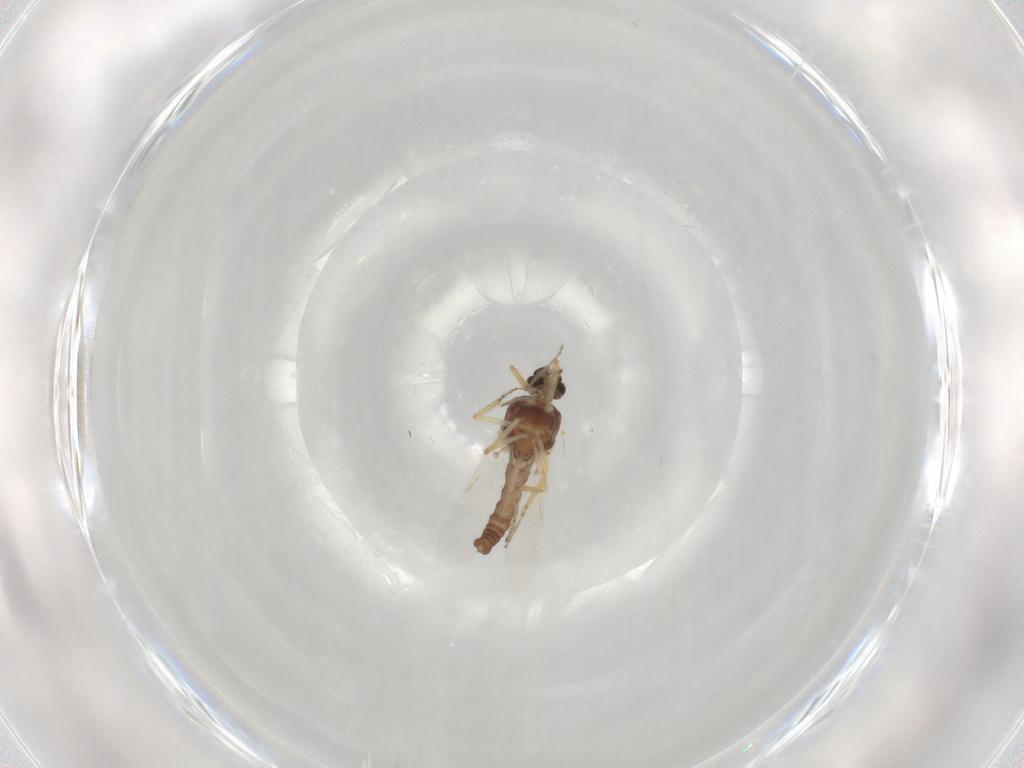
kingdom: Animalia
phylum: Arthropoda
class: Insecta
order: Diptera
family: Ceratopogonidae
